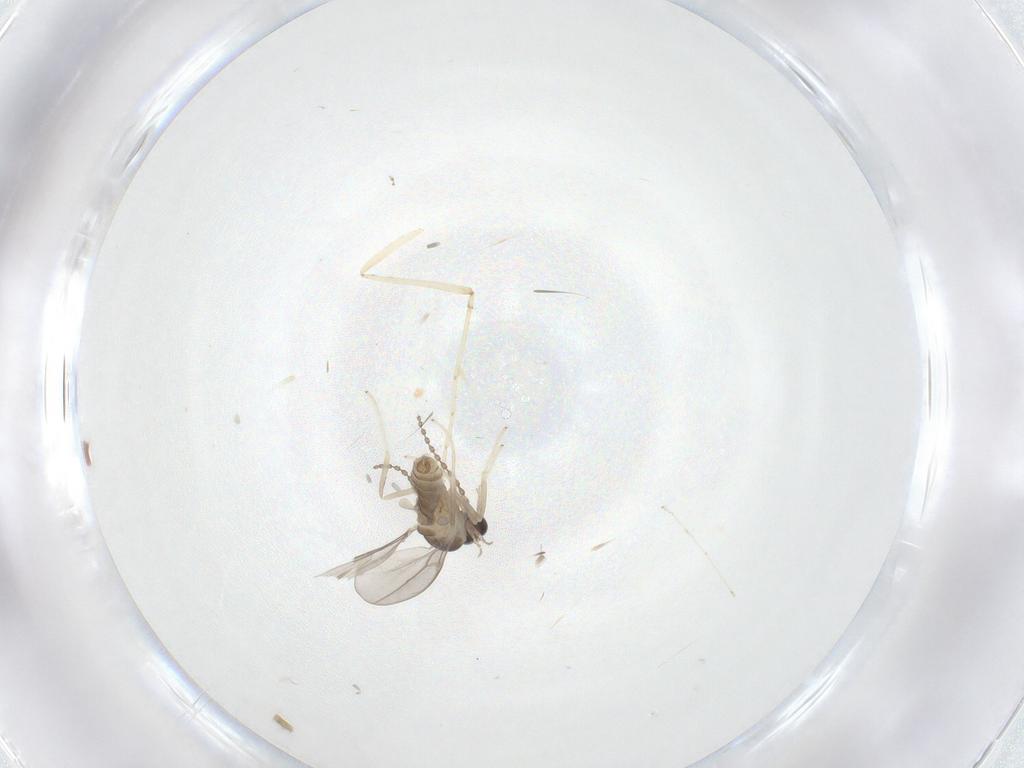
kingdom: Animalia
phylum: Arthropoda
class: Insecta
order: Diptera
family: Cecidomyiidae
